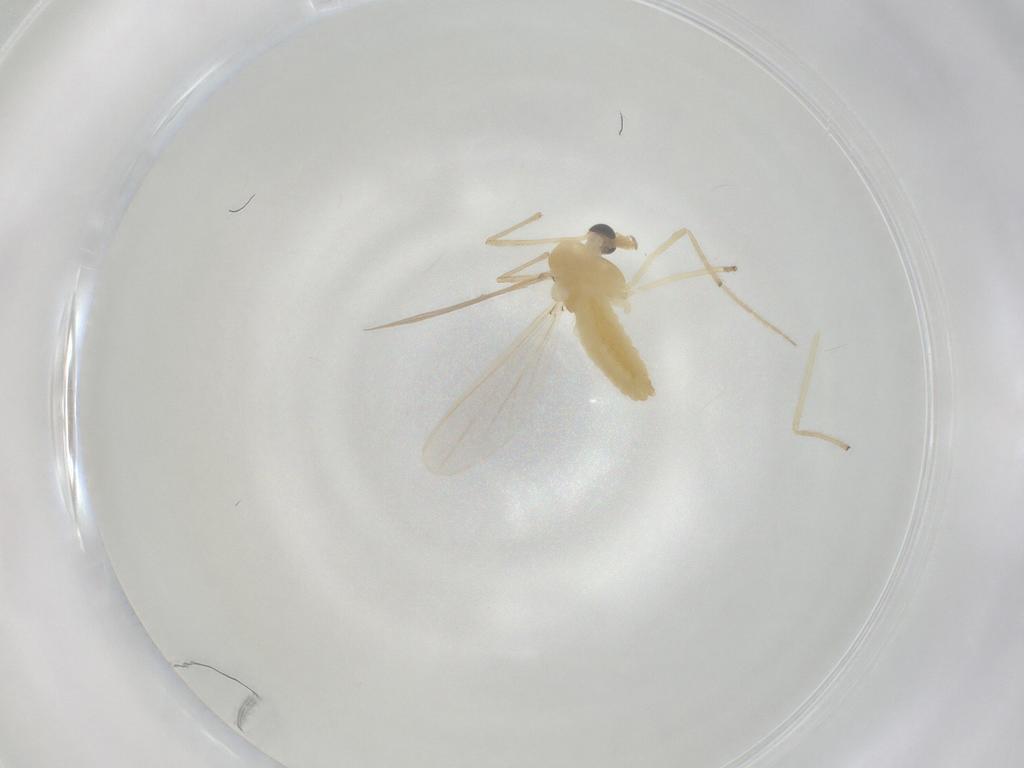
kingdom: Animalia
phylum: Arthropoda
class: Insecta
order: Diptera
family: Chironomidae
